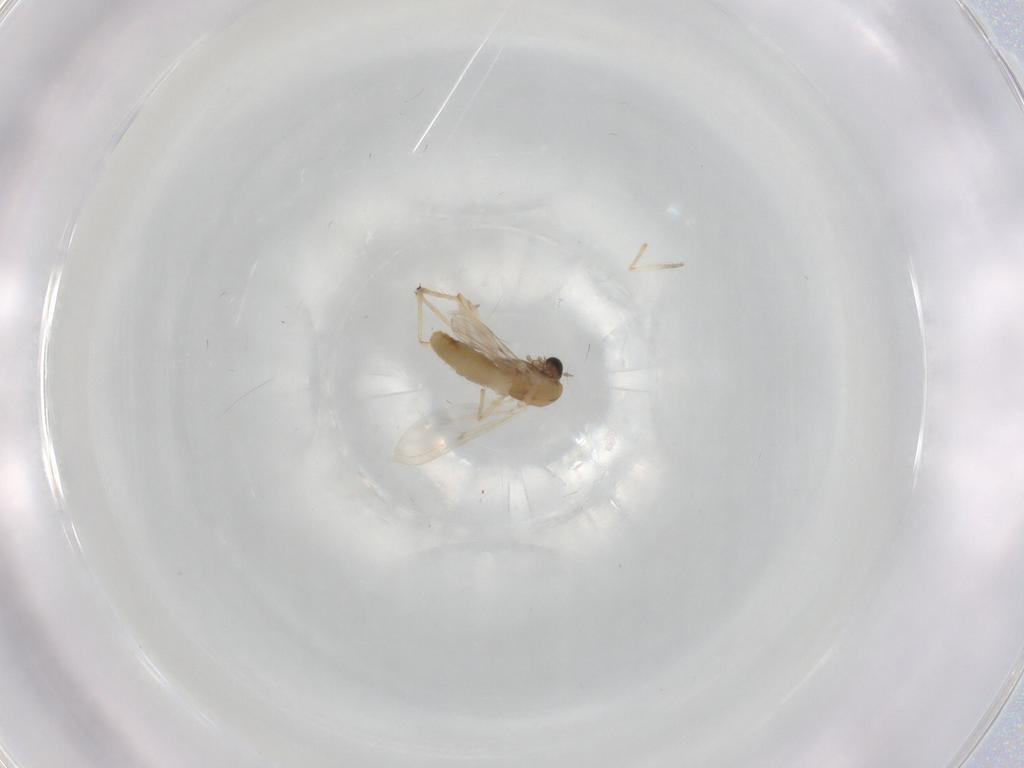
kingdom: Animalia
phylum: Arthropoda
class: Insecta
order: Diptera
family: Chironomidae
